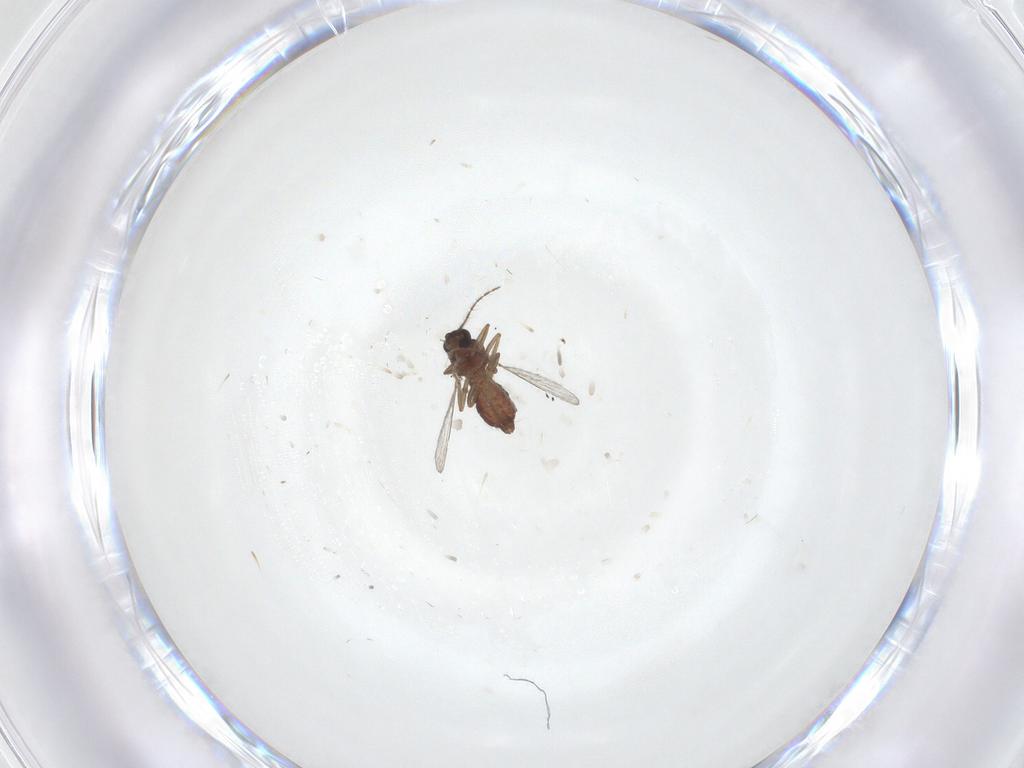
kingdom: Animalia
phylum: Arthropoda
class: Insecta
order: Diptera
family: Ceratopogonidae
